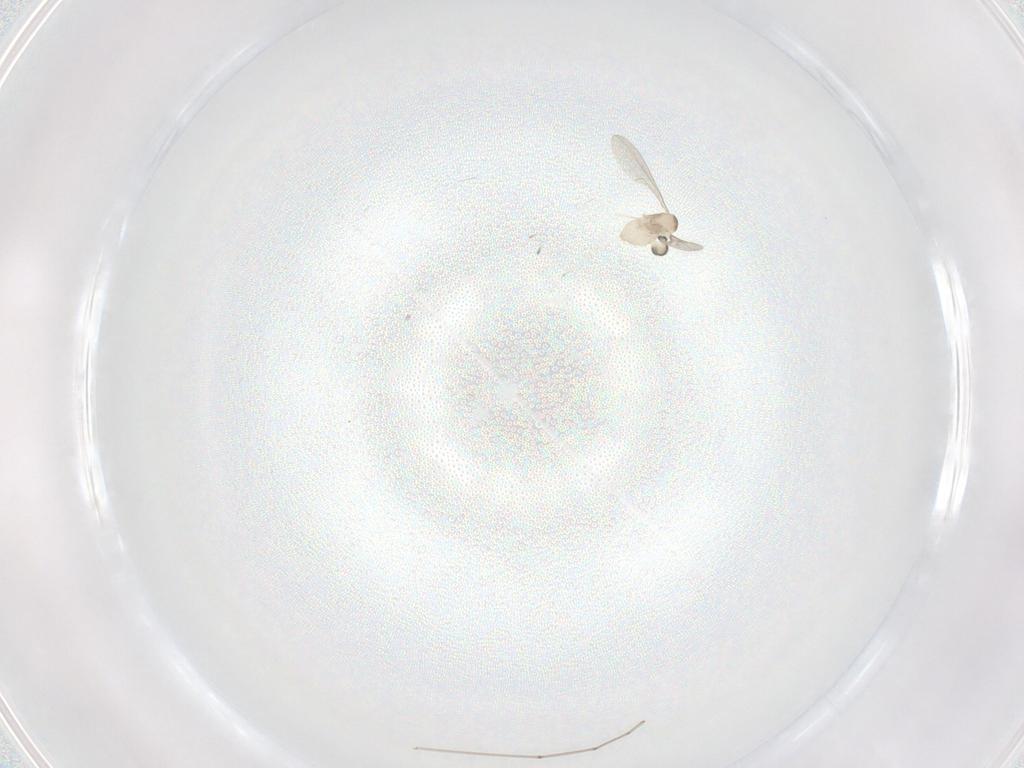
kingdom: Animalia
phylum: Arthropoda
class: Insecta
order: Diptera
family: Cecidomyiidae
